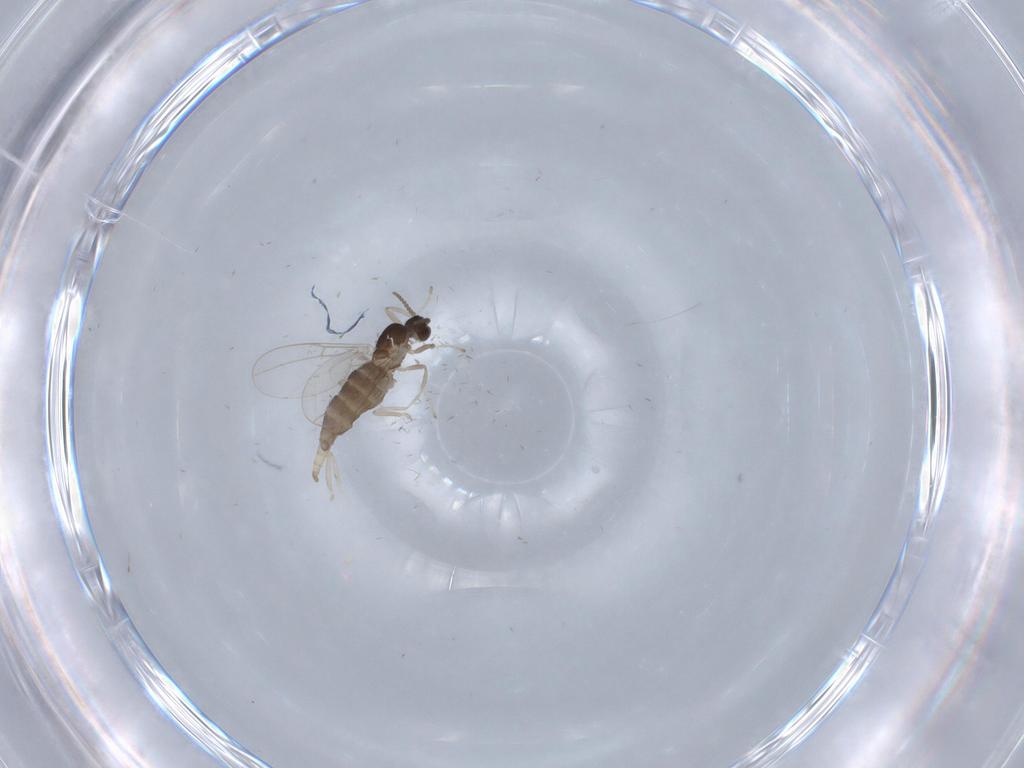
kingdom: Animalia
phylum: Arthropoda
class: Insecta
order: Diptera
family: Cecidomyiidae
